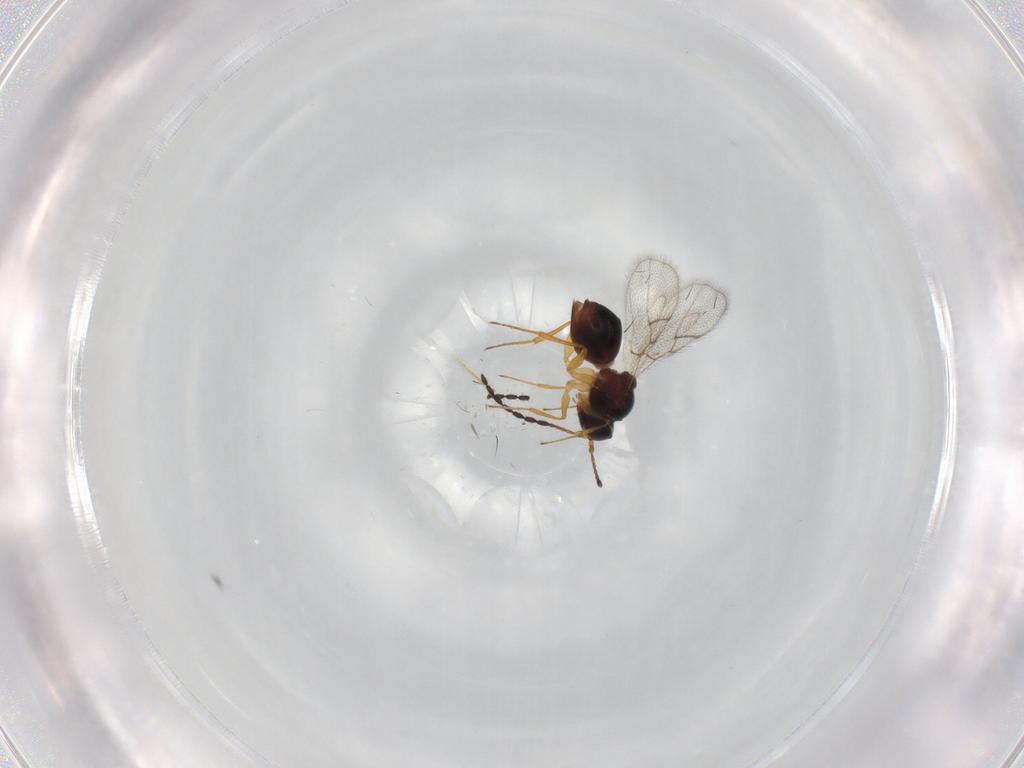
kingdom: Animalia
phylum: Arthropoda
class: Insecta
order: Hymenoptera
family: Figitidae
